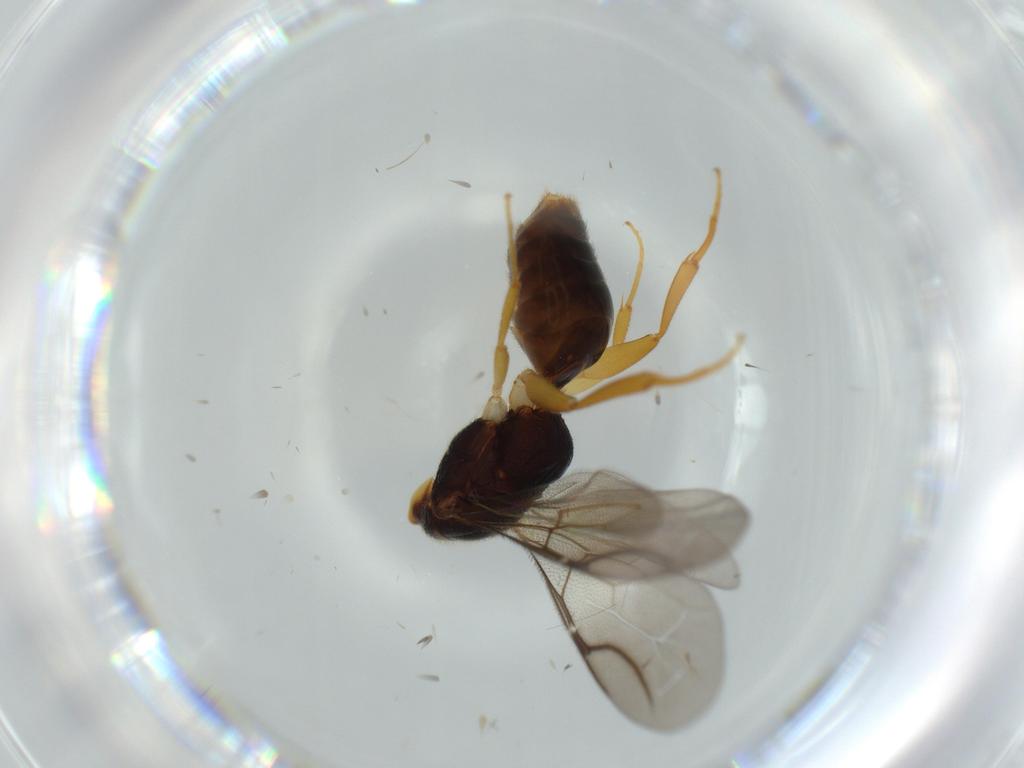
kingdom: Animalia
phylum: Arthropoda
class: Insecta
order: Hymenoptera
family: Bethylidae
